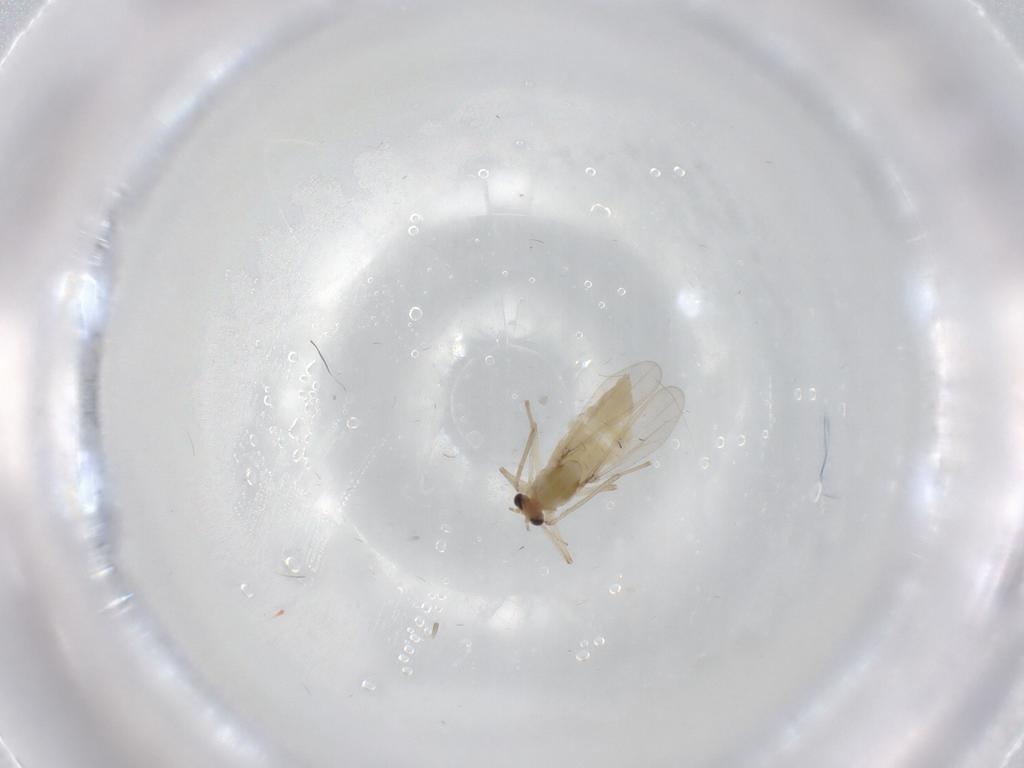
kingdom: Animalia
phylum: Arthropoda
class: Insecta
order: Diptera
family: Chironomidae
